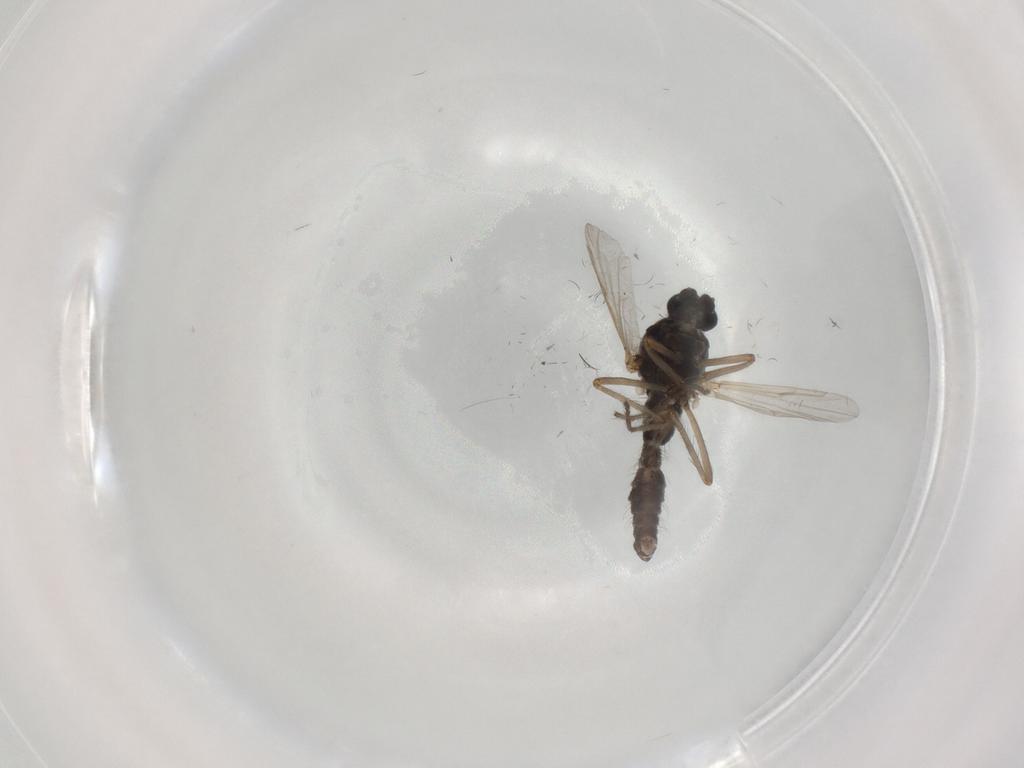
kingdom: Animalia
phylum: Arthropoda
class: Insecta
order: Diptera
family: Ceratopogonidae
